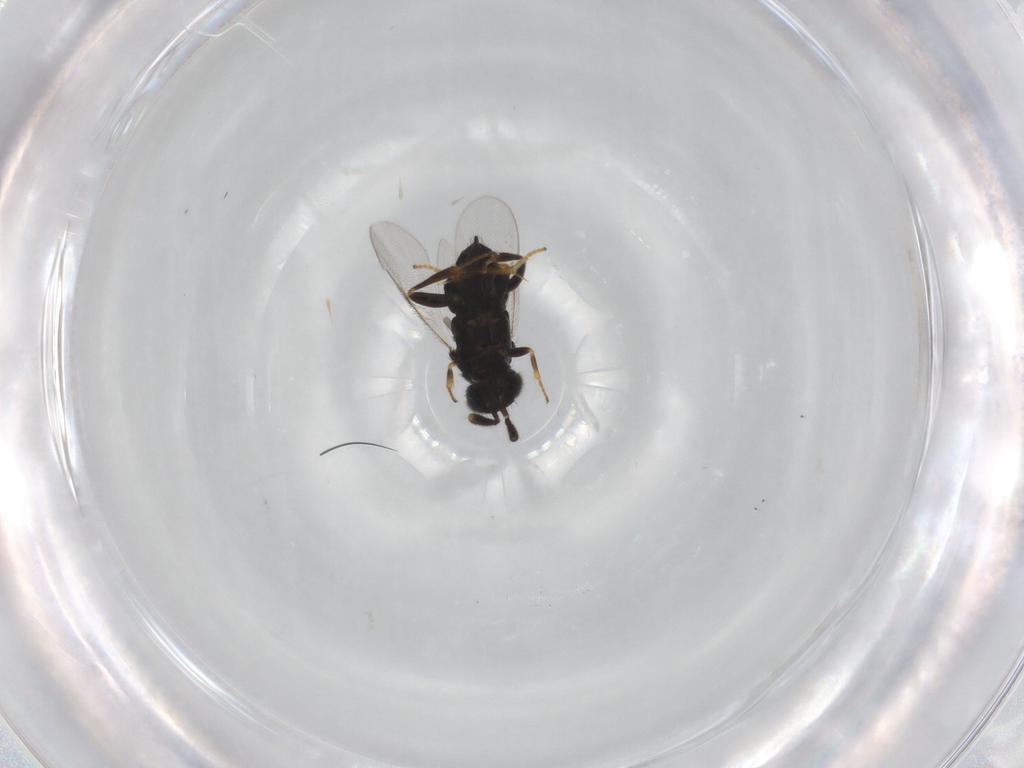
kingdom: Animalia
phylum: Arthropoda
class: Insecta
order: Hymenoptera
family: Encyrtidae
